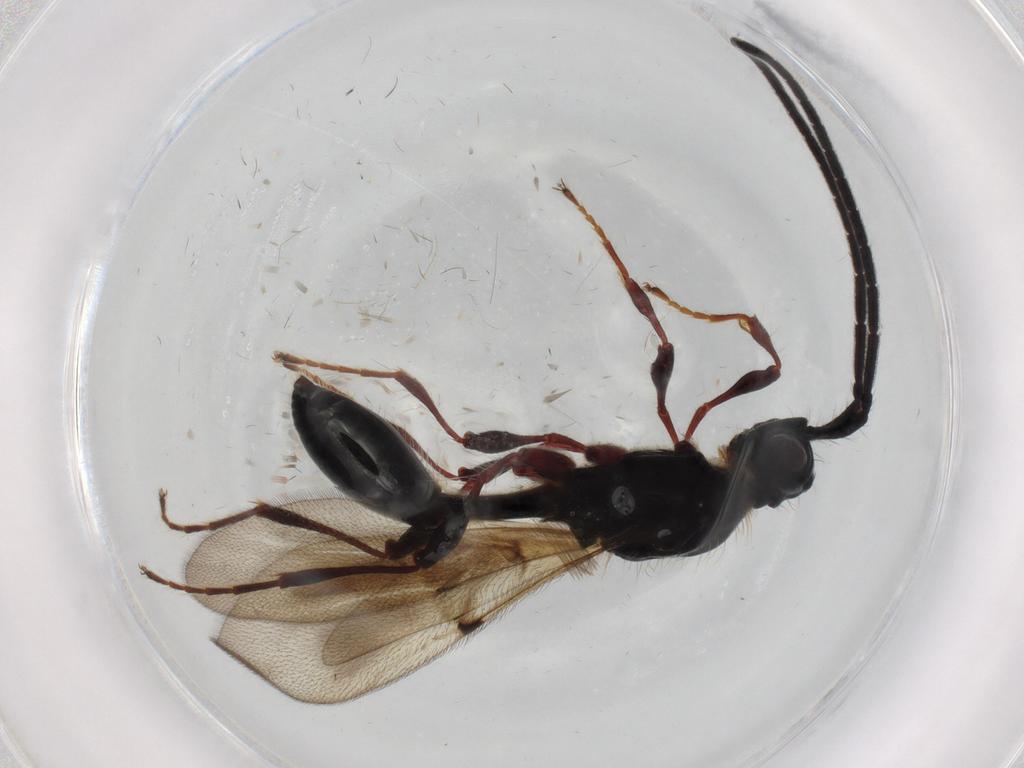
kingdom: Animalia
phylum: Arthropoda
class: Insecta
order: Hymenoptera
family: Diapriidae
